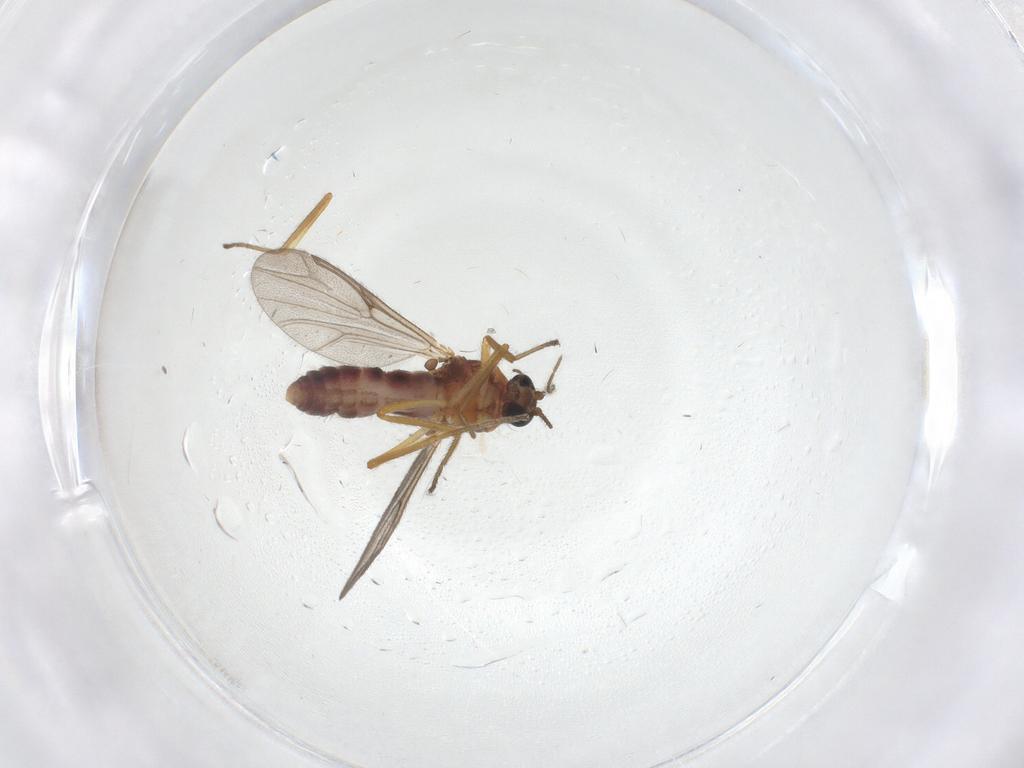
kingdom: Animalia
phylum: Arthropoda
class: Insecta
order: Diptera
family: Ceratopogonidae
